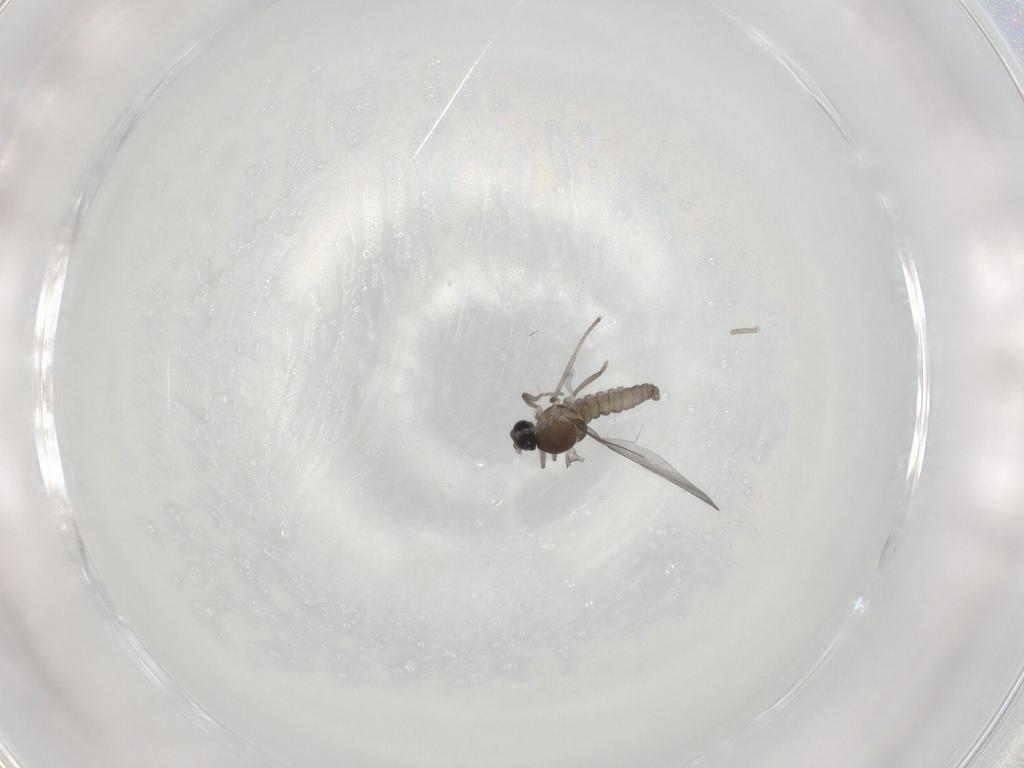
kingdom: Animalia
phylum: Arthropoda
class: Insecta
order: Diptera
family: Cecidomyiidae
